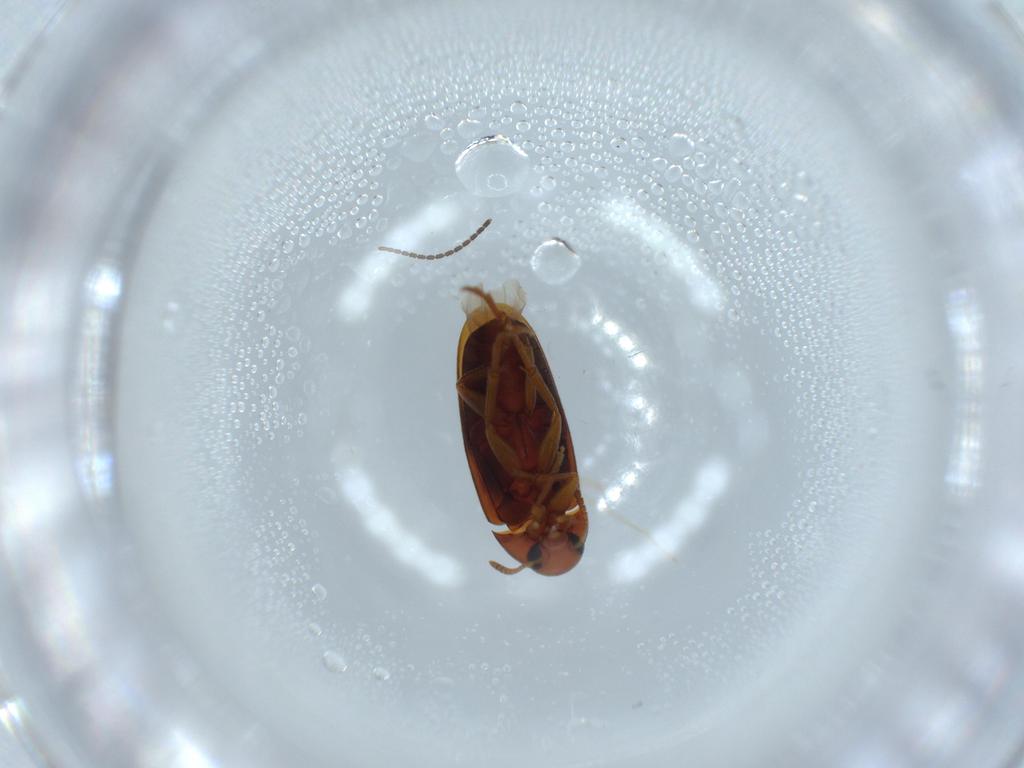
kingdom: Animalia
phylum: Arthropoda
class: Insecta
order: Coleoptera
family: Scraptiidae
